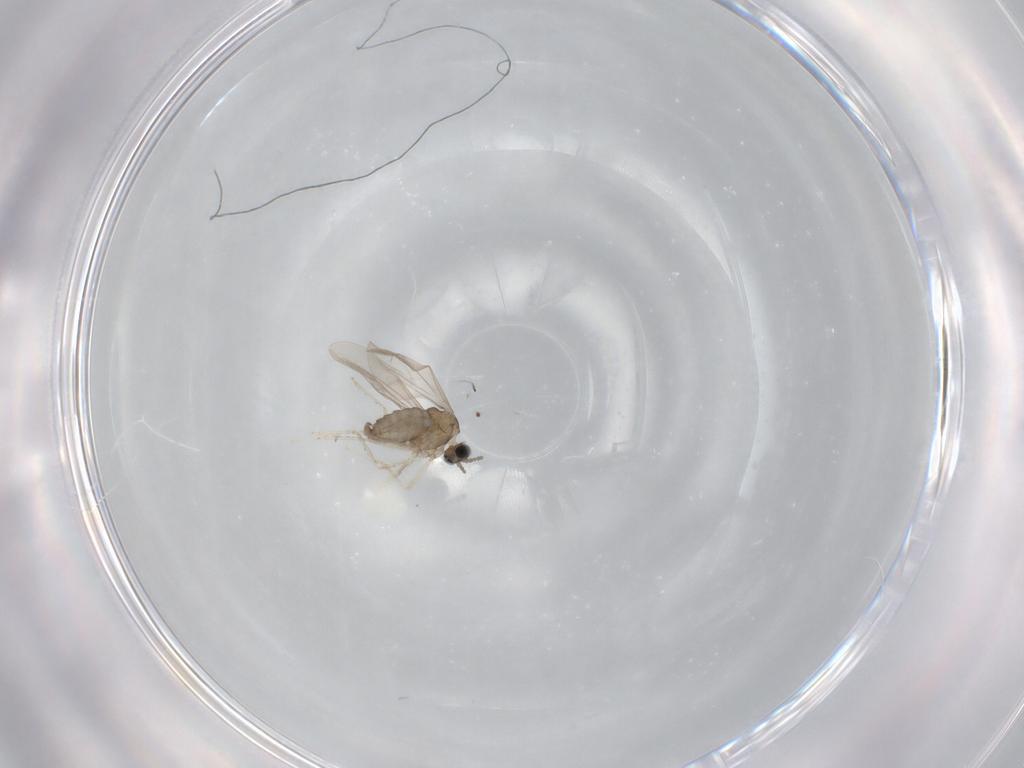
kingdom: Animalia
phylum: Arthropoda
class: Insecta
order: Diptera
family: Cecidomyiidae
